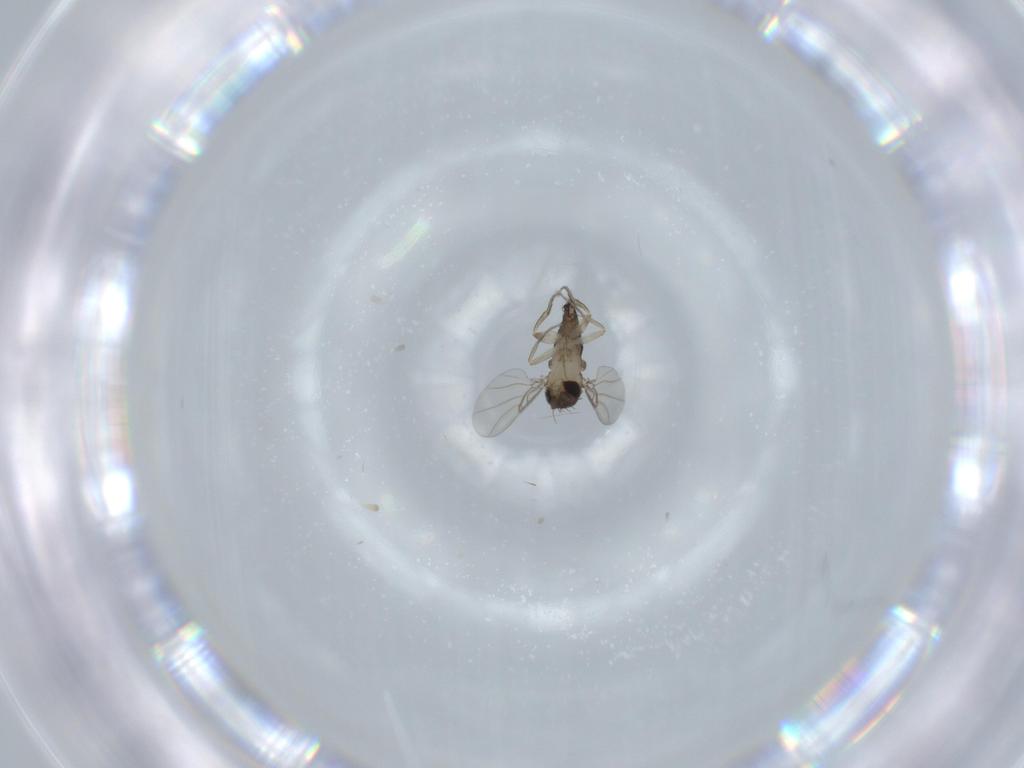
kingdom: Animalia
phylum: Arthropoda
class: Insecta
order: Diptera
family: Phoridae
